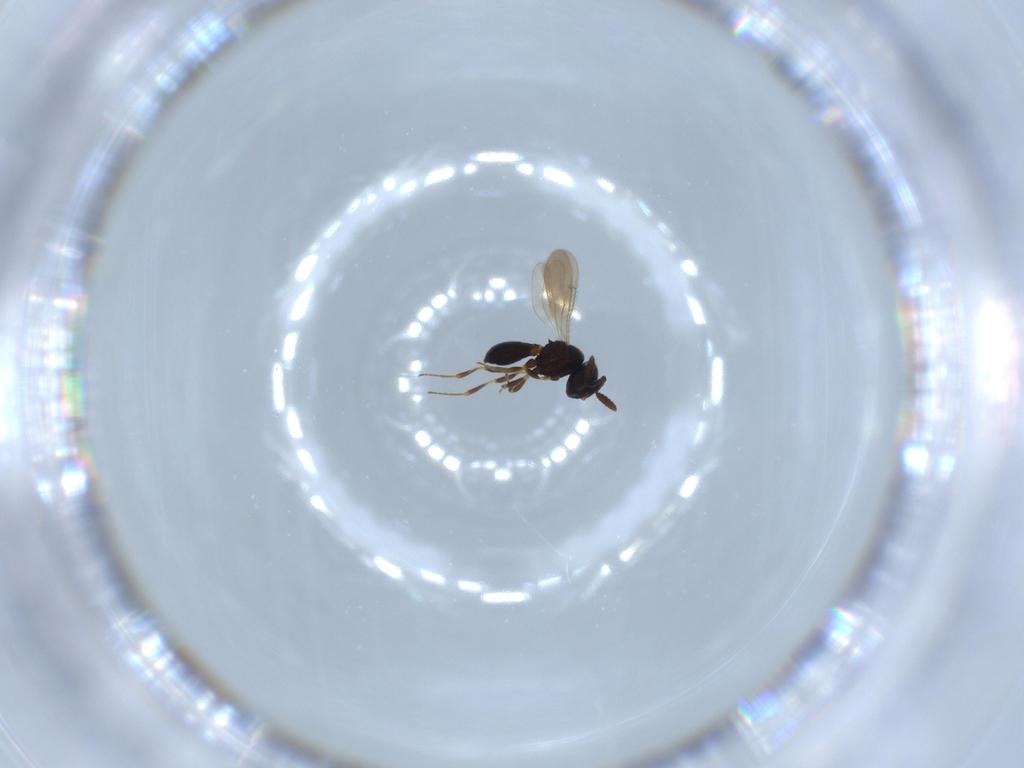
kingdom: Animalia
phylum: Arthropoda
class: Insecta
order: Hymenoptera
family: Scelionidae
